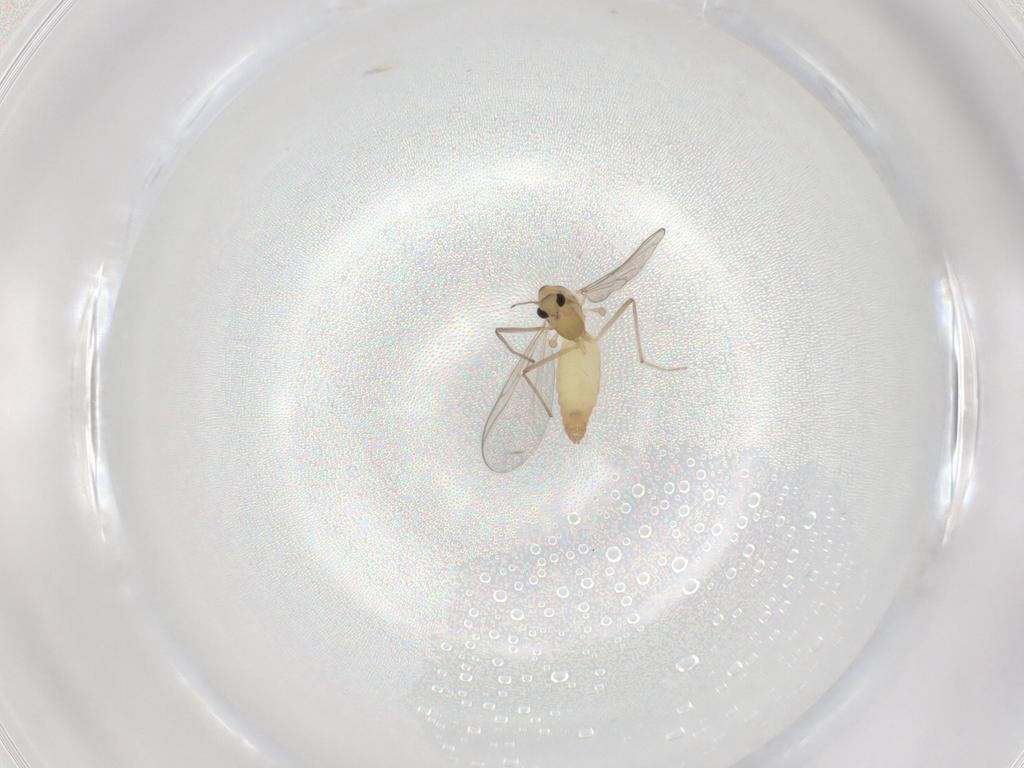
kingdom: Animalia
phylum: Arthropoda
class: Insecta
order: Diptera
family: Chironomidae
